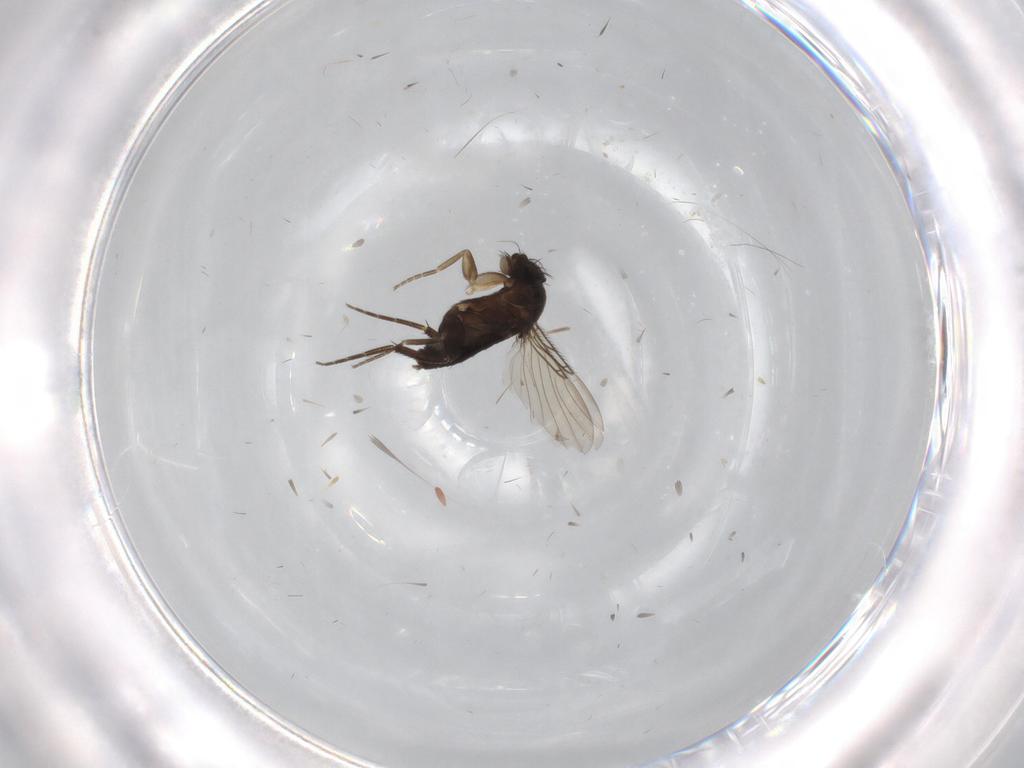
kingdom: Animalia
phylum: Arthropoda
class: Insecta
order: Diptera
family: Phoridae
